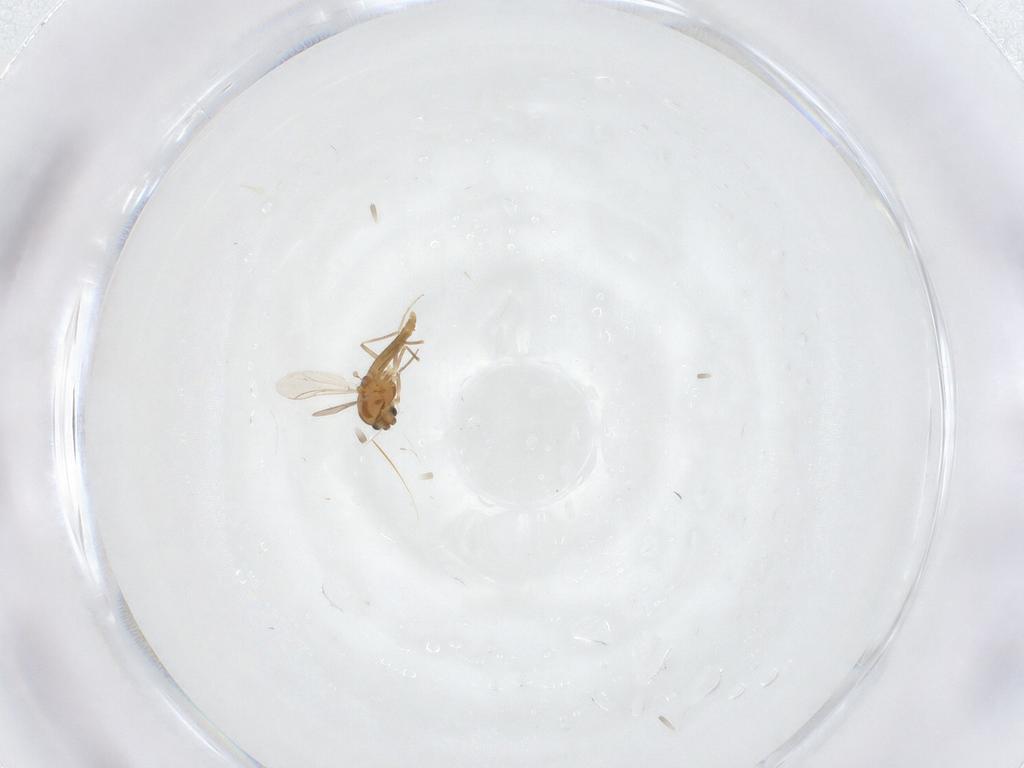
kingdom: Animalia
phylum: Arthropoda
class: Insecta
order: Diptera
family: Chironomidae
